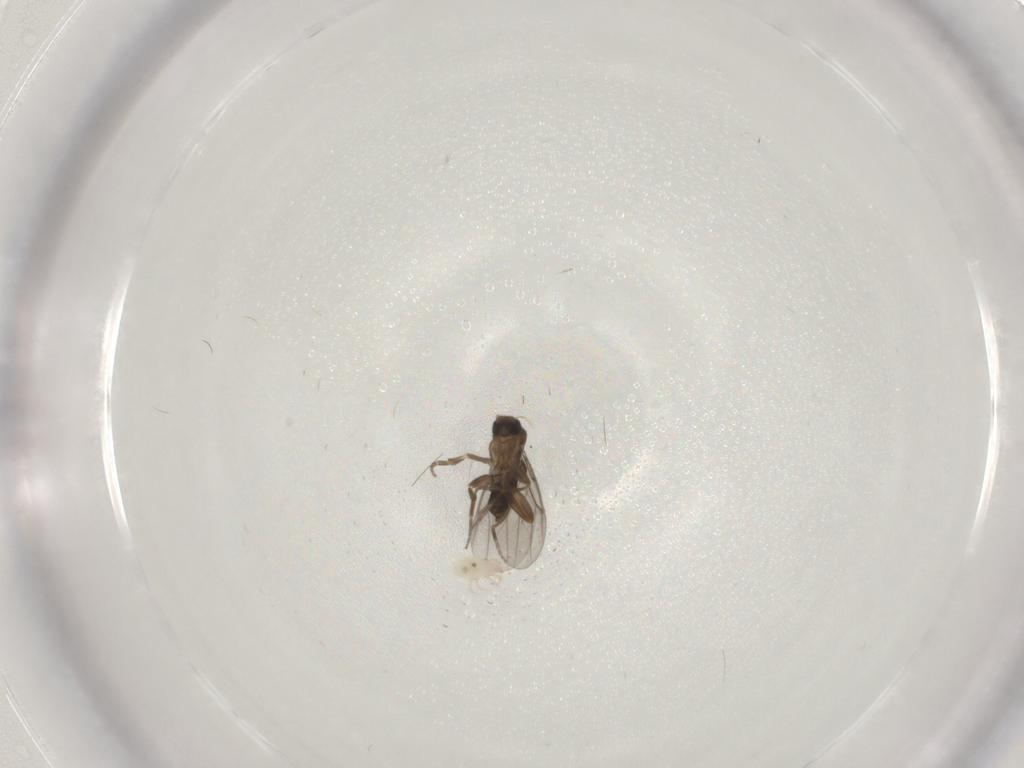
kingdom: Animalia
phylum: Arthropoda
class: Insecta
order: Diptera
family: Phoridae
